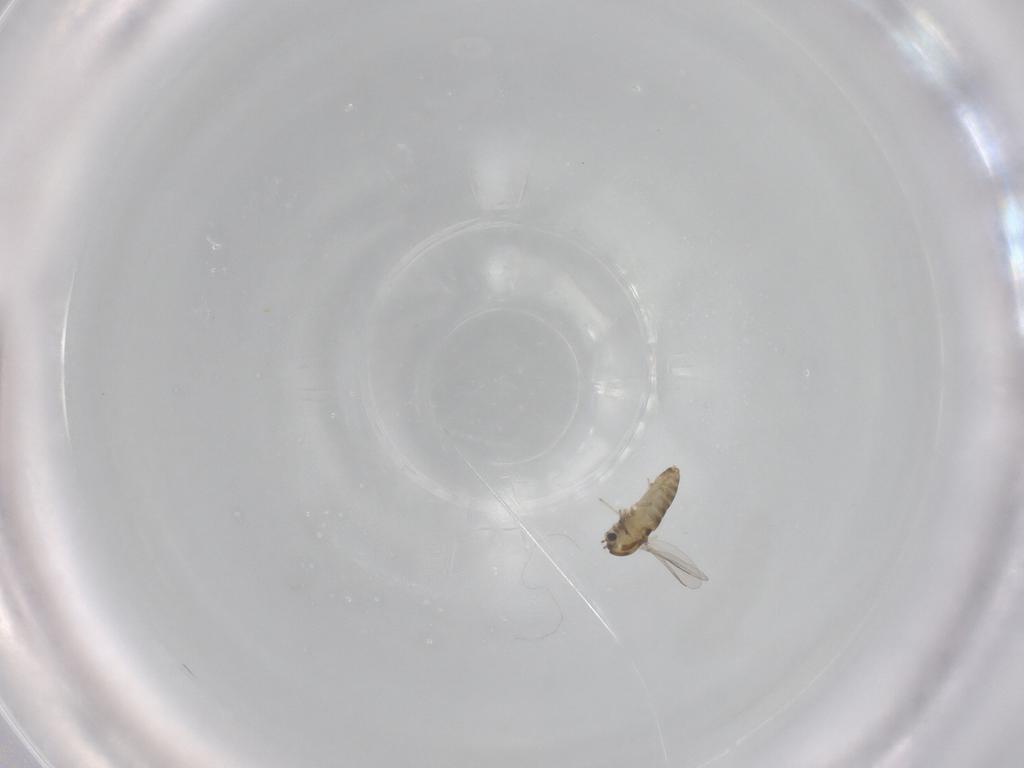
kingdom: Animalia
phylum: Arthropoda
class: Insecta
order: Diptera
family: Chironomidae
